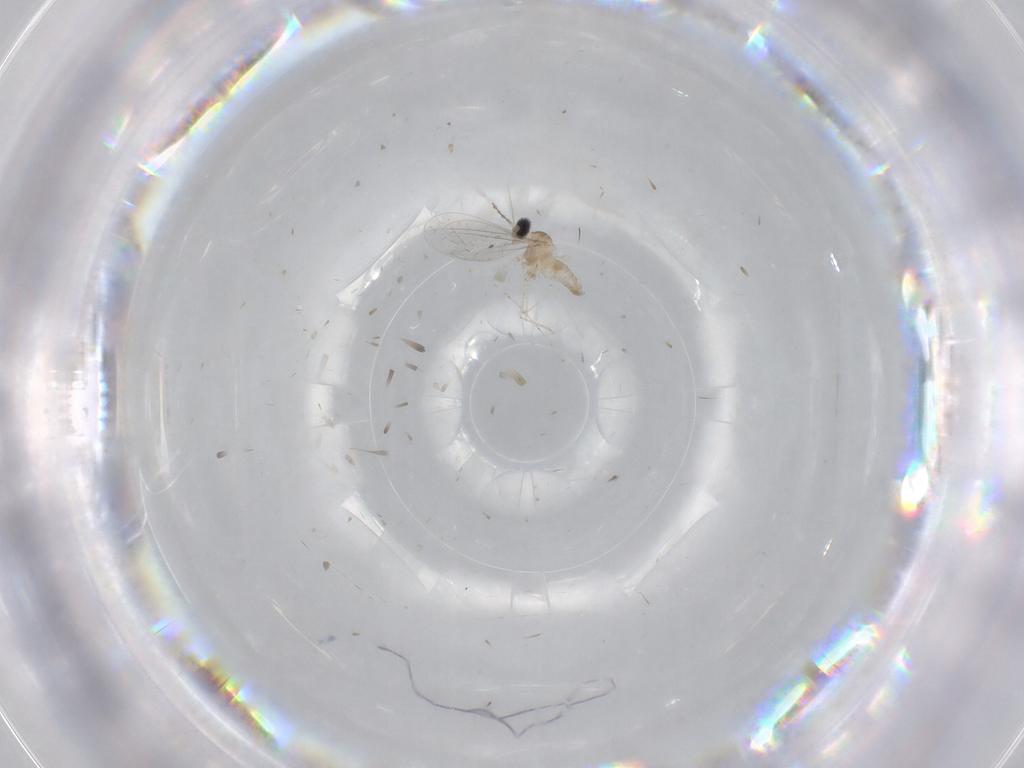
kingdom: Animalia
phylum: Arthropoda
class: Insecta
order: Diptera
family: Cecidomyiidae
